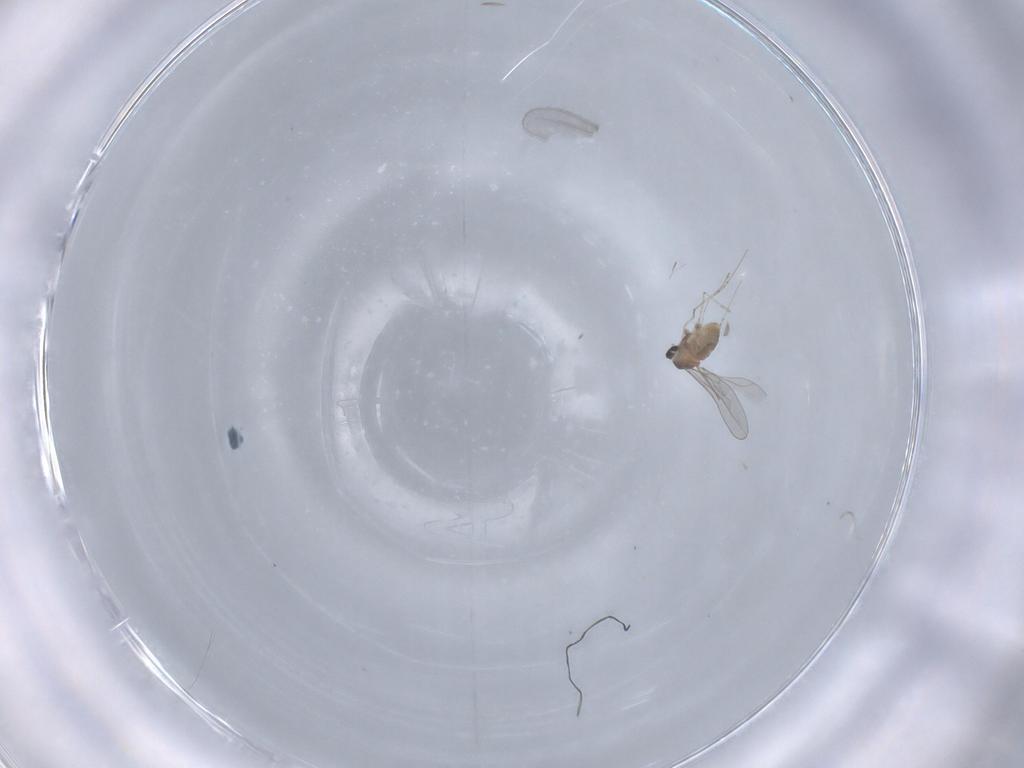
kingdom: Animalia
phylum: Arthropoda
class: Insecta
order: Diptera
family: Cecidomyiidae
